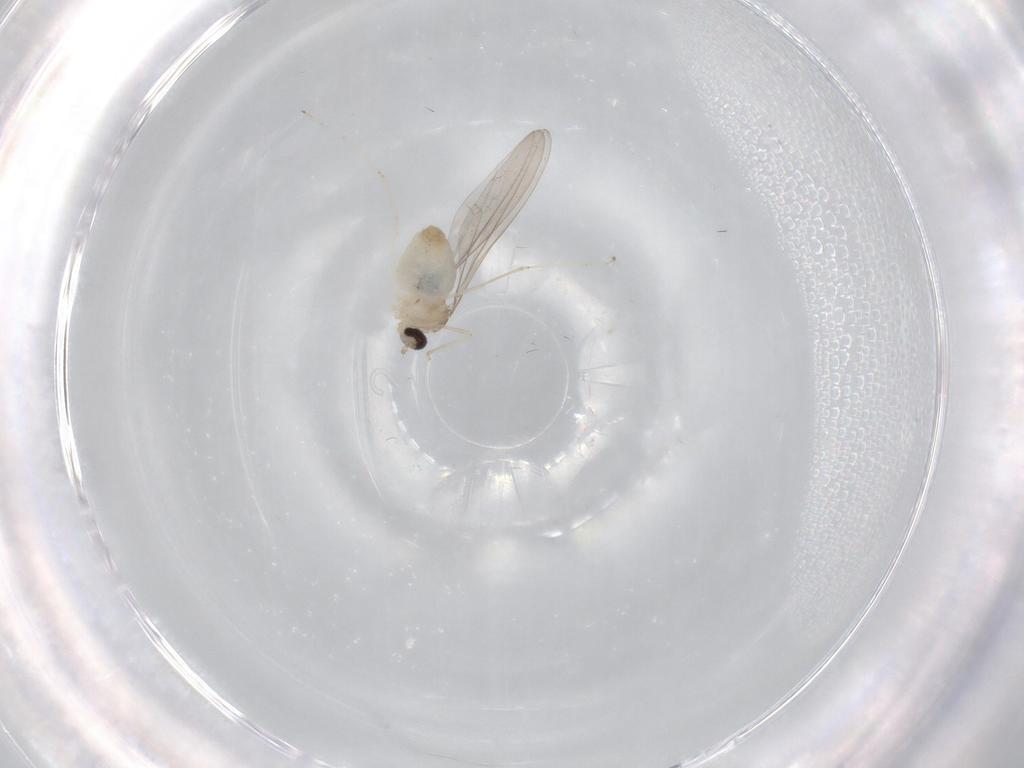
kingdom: Animalia
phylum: Arthropoda
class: Insecta
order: Diptera
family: Cecidomyiidae
